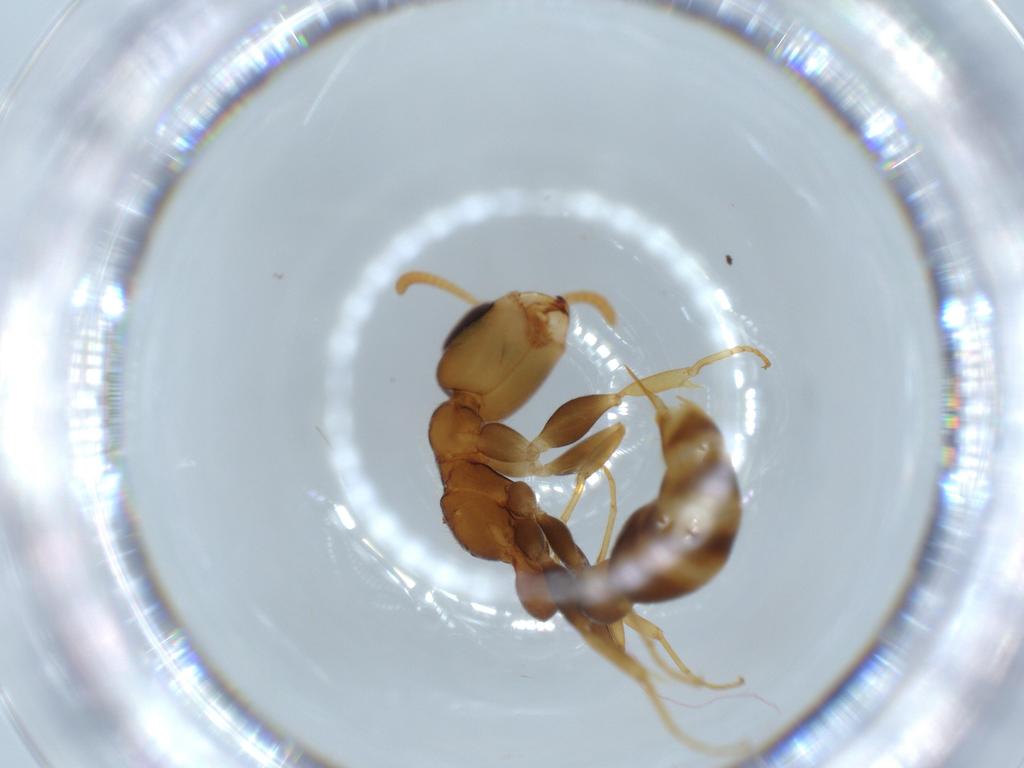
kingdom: Animalia
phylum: Arthropoda
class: Insecta
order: Hymenoptera
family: Formicidae
